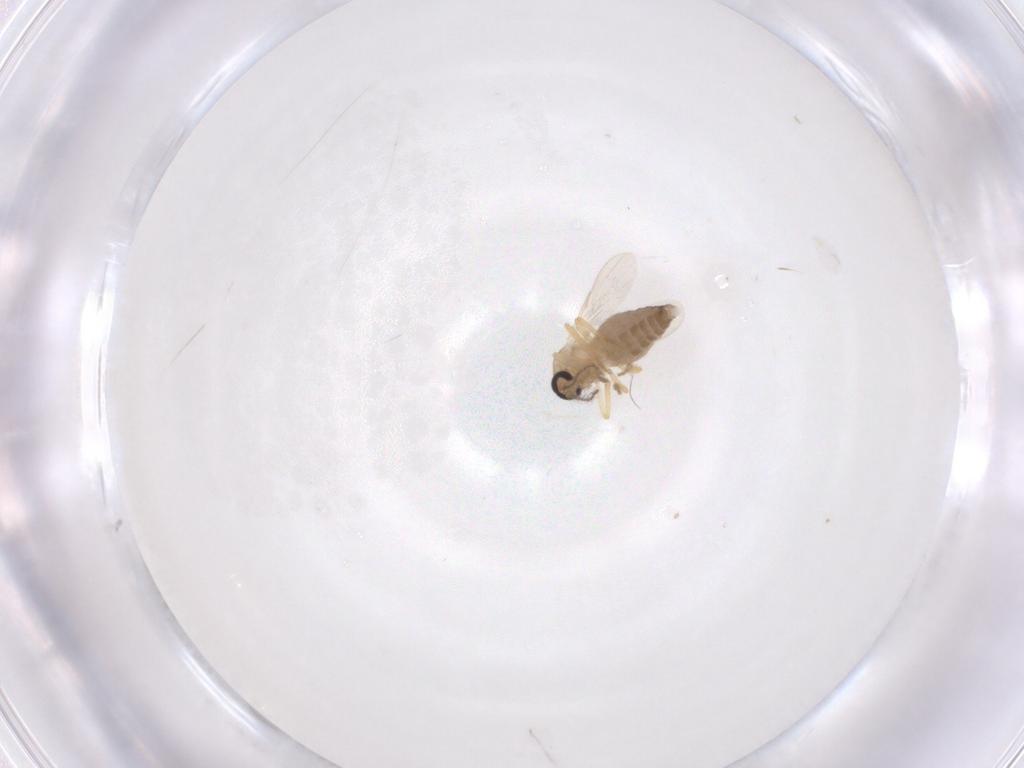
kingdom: Animalia
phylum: Arthropoda
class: Insecta
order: Diptera
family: Ceratopogonidae
